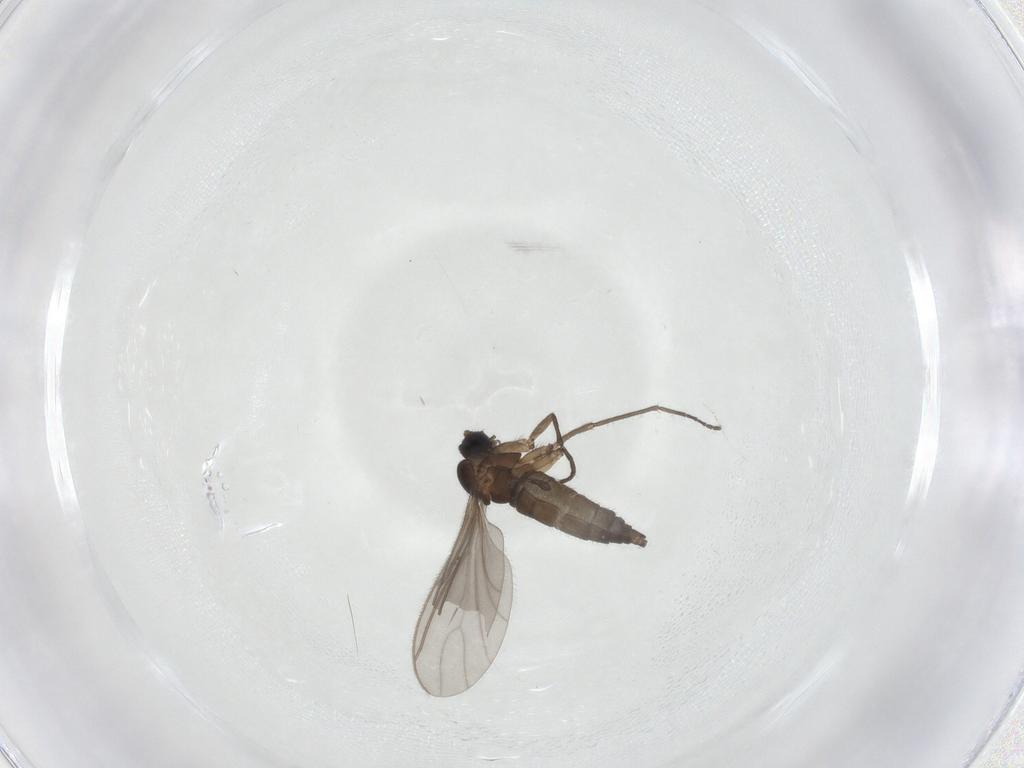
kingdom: Animalia
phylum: Arthropoda
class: Insecta
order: Diptera
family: Sciaridae
